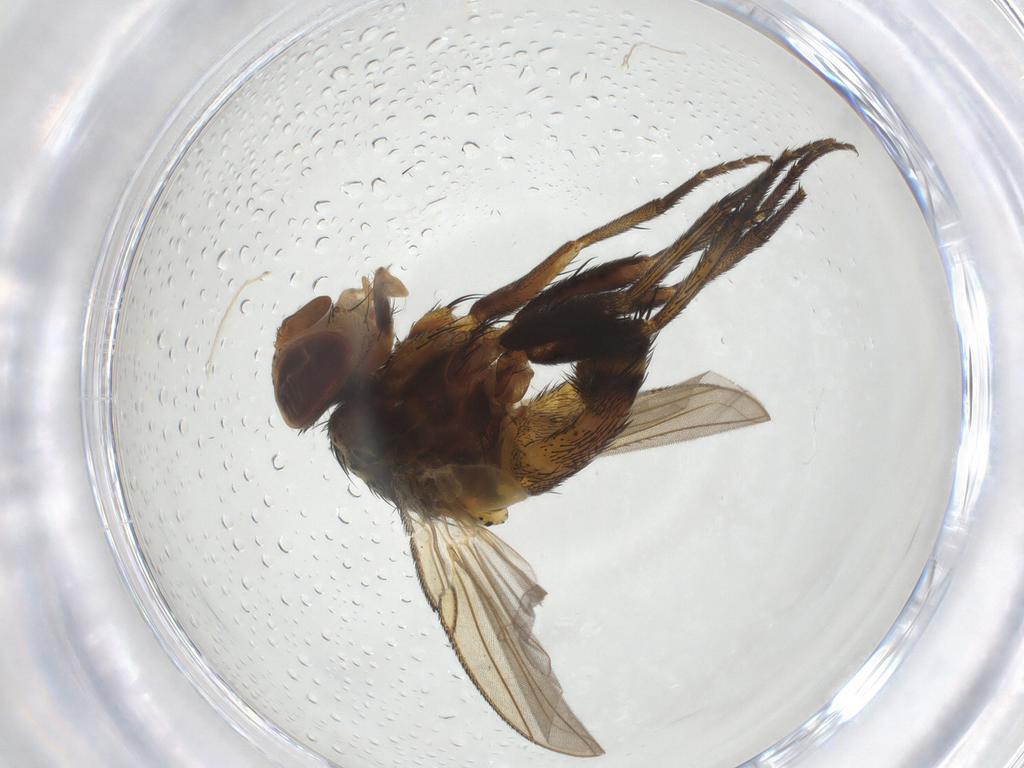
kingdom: Animalia
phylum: Arthropoda
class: Insecta
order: Diptera
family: Tachinidae
